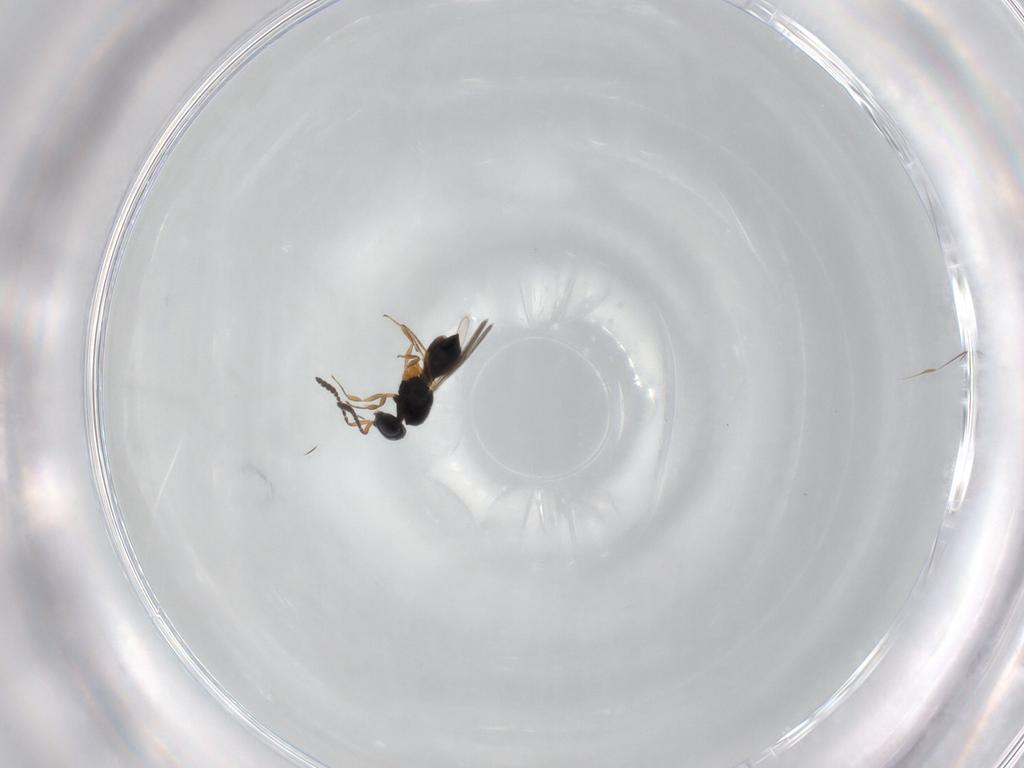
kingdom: Animalia
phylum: Arthropoda
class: Insecta
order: Hymenoptera
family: Scelionidae
